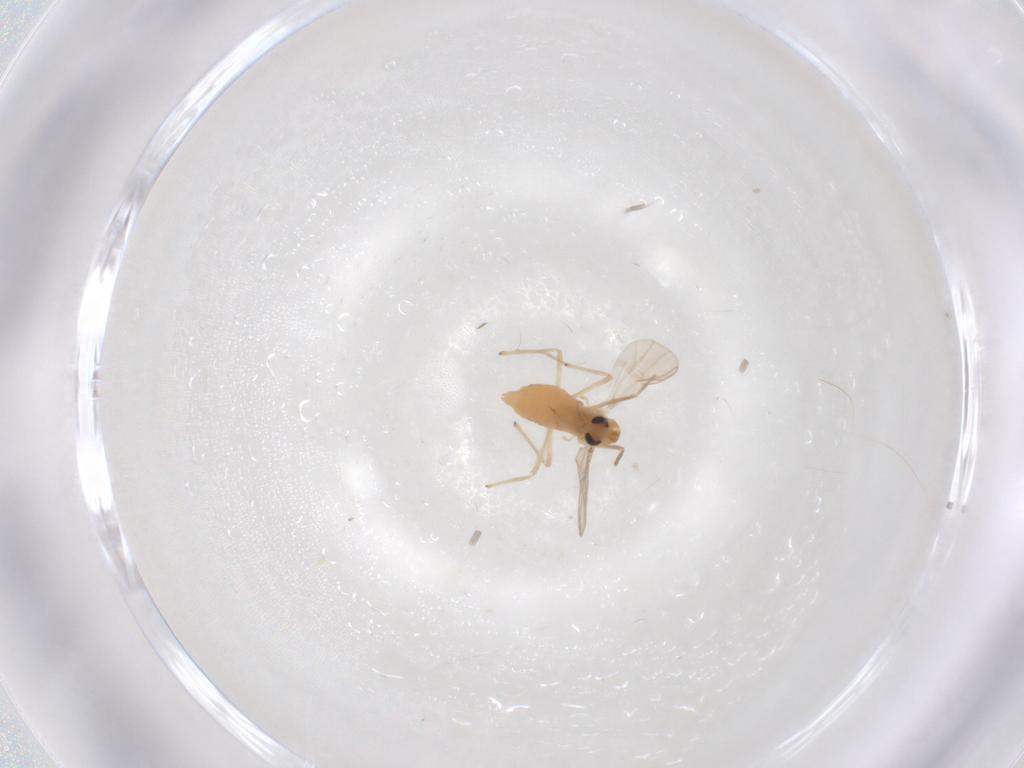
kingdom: Animalia
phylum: Arthropoda
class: Insecta
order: Diptera
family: Chironomidae
